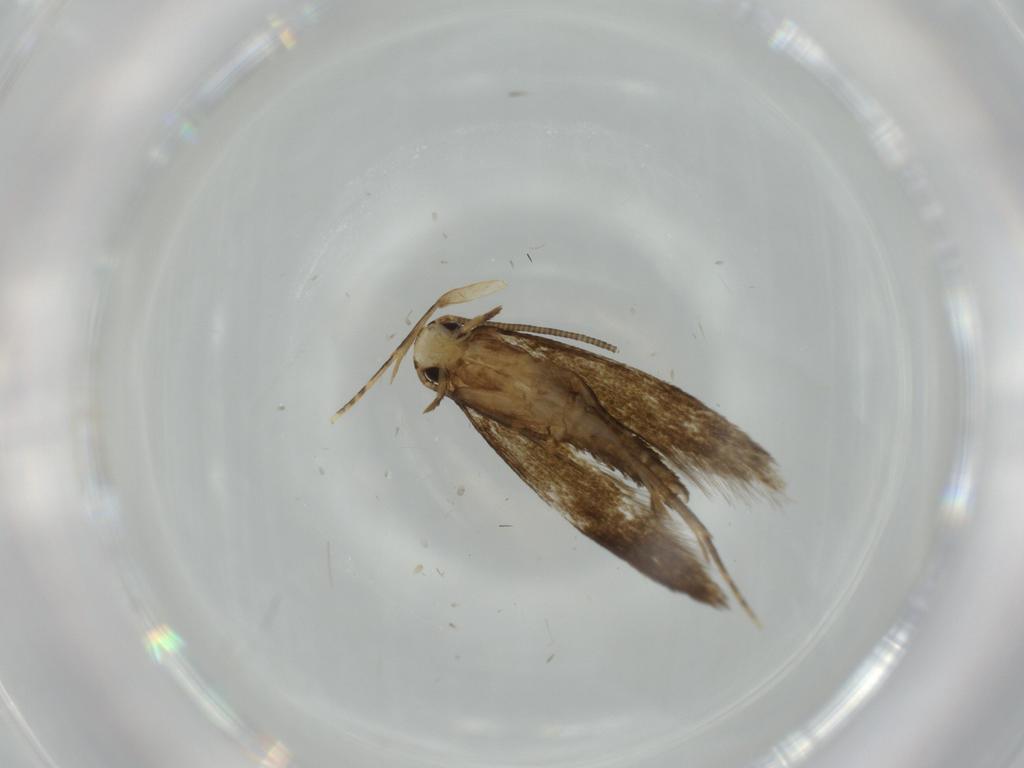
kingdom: Animalia
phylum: Arthropoda
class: Insecta
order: Lepidoptera
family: Tineidae
